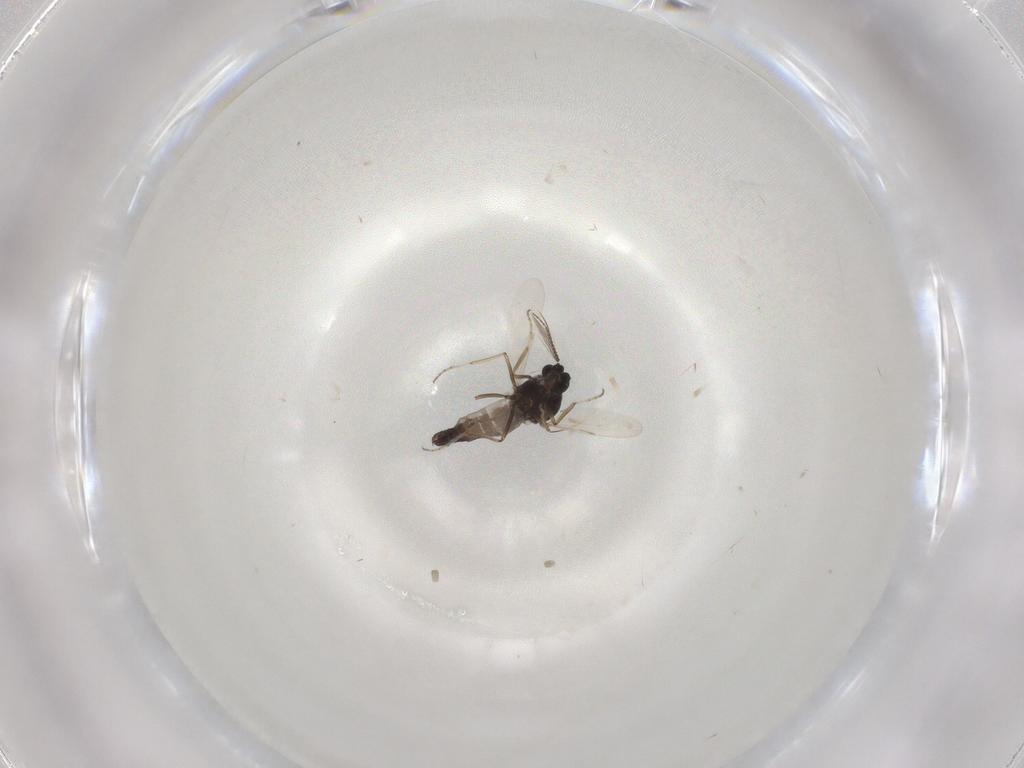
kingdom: Animalia
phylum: Arthropoda
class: Insecta
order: Diptera
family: Ceratopogonidae
